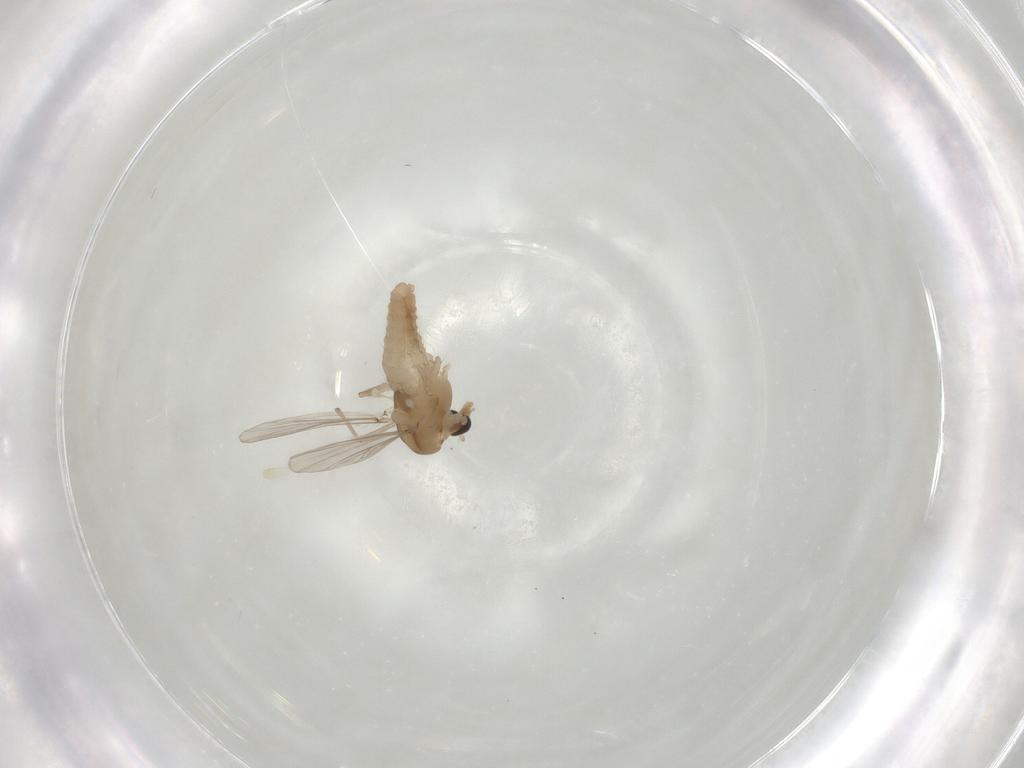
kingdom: Animalia
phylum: Arthropoda
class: Insecta
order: Diptera
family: Chironomidae
